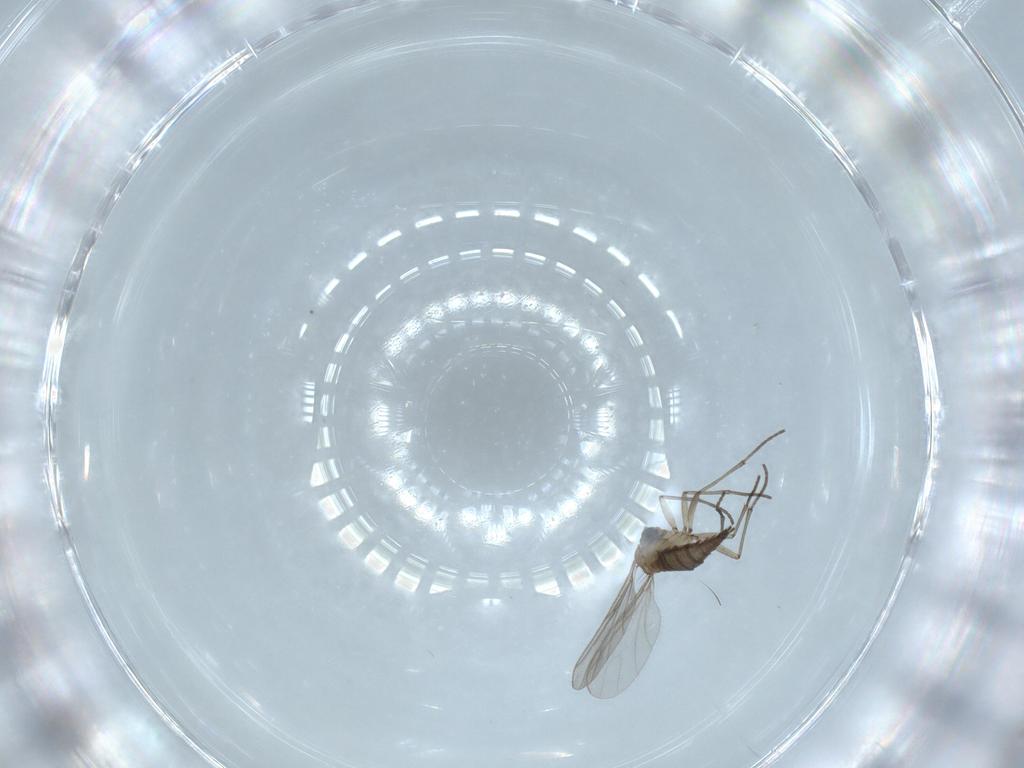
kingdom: Animalia
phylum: Arthropoda
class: Insecta
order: Diptera
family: Sciaridae
